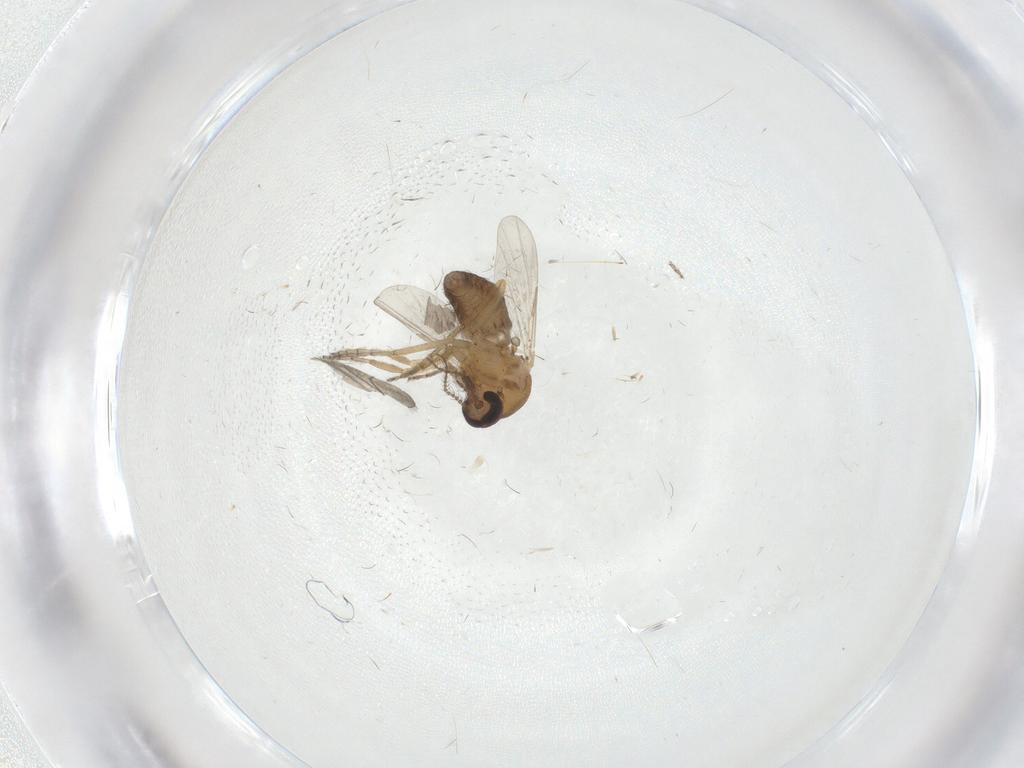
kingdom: Animalia
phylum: Arthropoda
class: Insecta
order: Diptera
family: Ceratopogonidae
